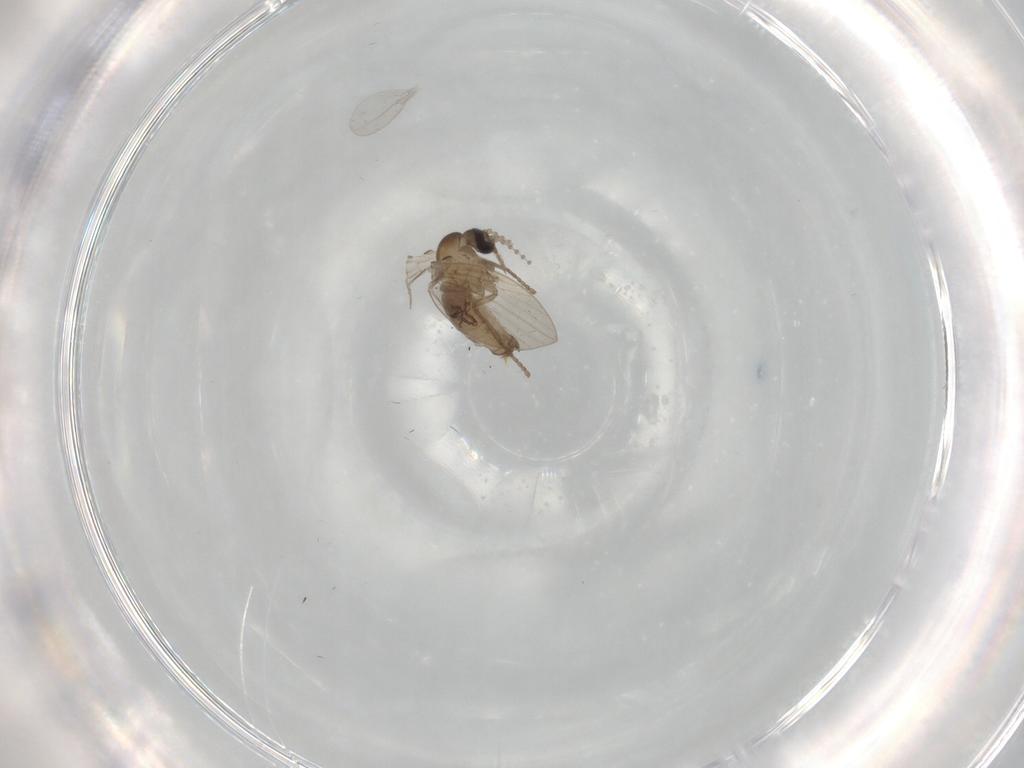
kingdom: Animalia
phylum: Arthropoda
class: Insecta
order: Diptera
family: Psychodidae
